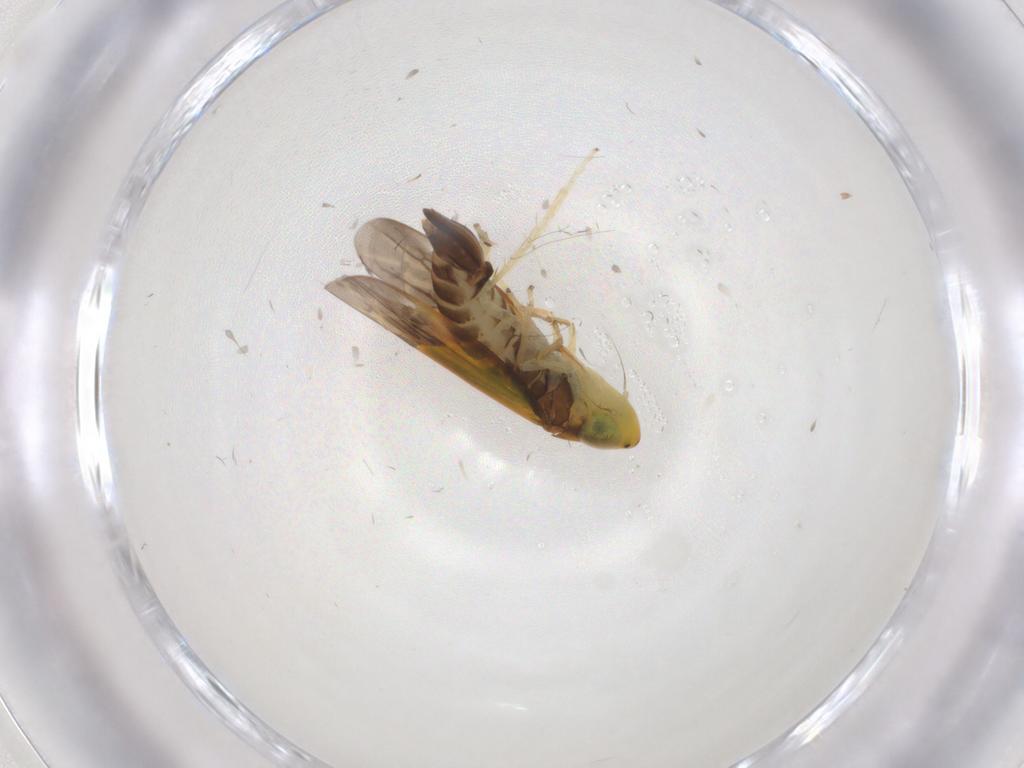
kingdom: Animalia
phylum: Arthropoda
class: Insecta
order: Hemiptera
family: Cicadellidae
